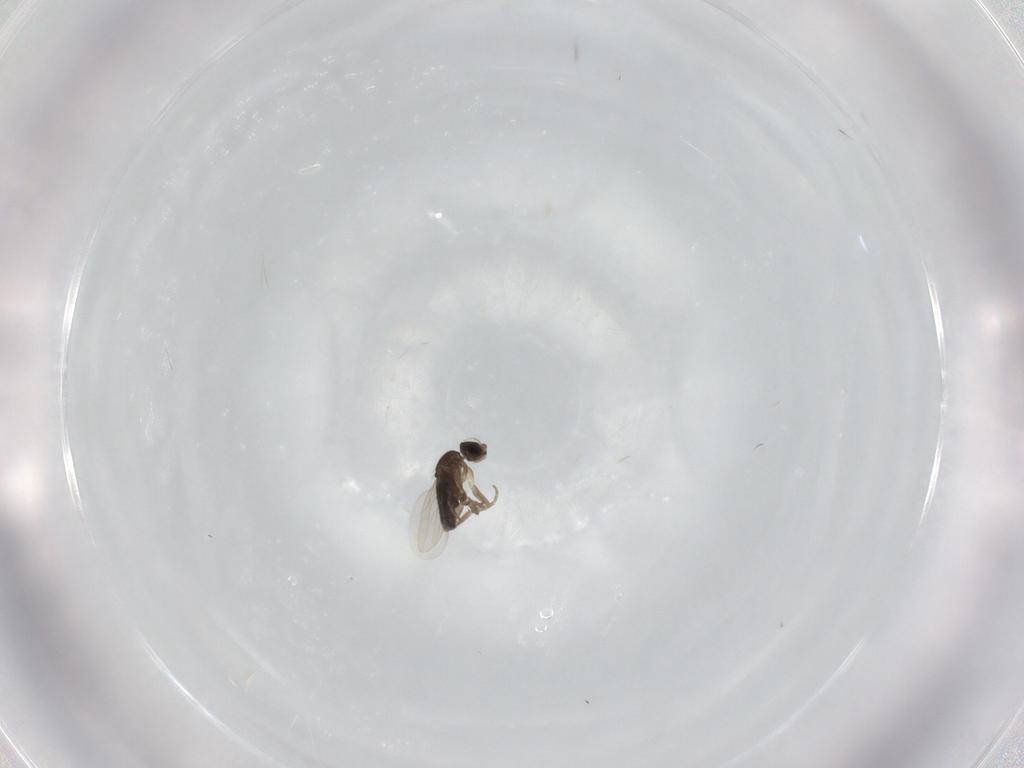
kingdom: Animalia
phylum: Arthropoda
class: Insecta
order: Diptera
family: Phoridae
